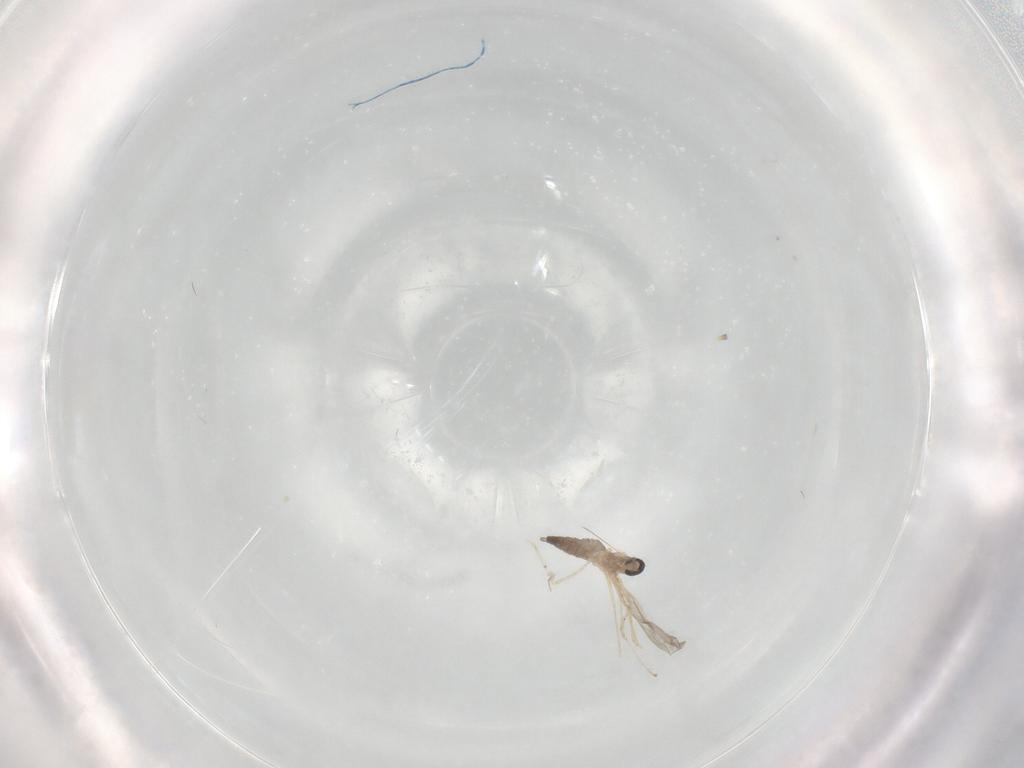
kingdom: Animalia
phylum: Arthropoda
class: Insecta
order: Diptera
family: Cecidomyiidae
